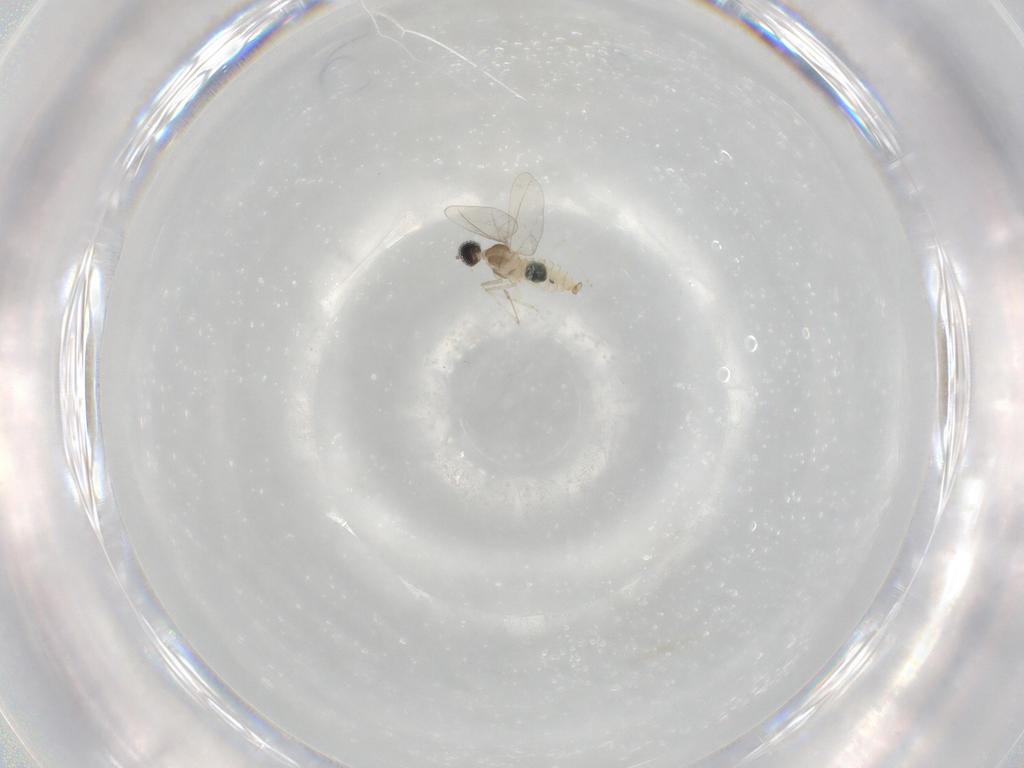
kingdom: Animalia
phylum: Arthropoda
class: Insecta
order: Diptera
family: Cecidomyiidae
